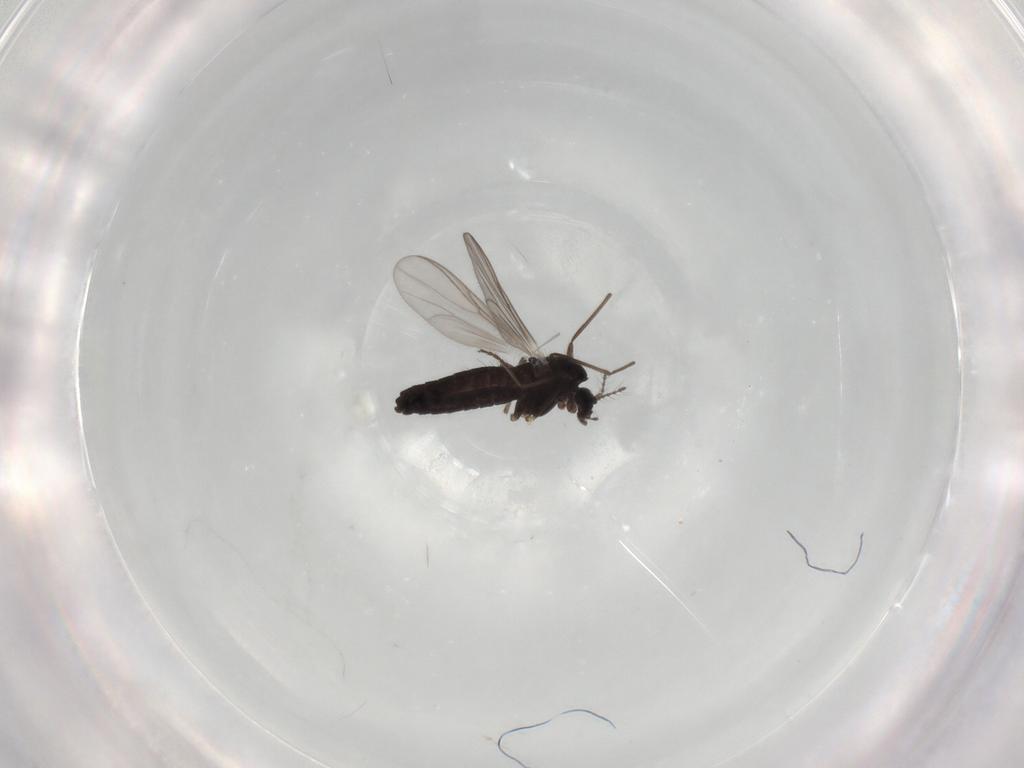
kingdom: Animalia
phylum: Arthropoda
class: Insecta
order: Diptera
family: Chironomidae
